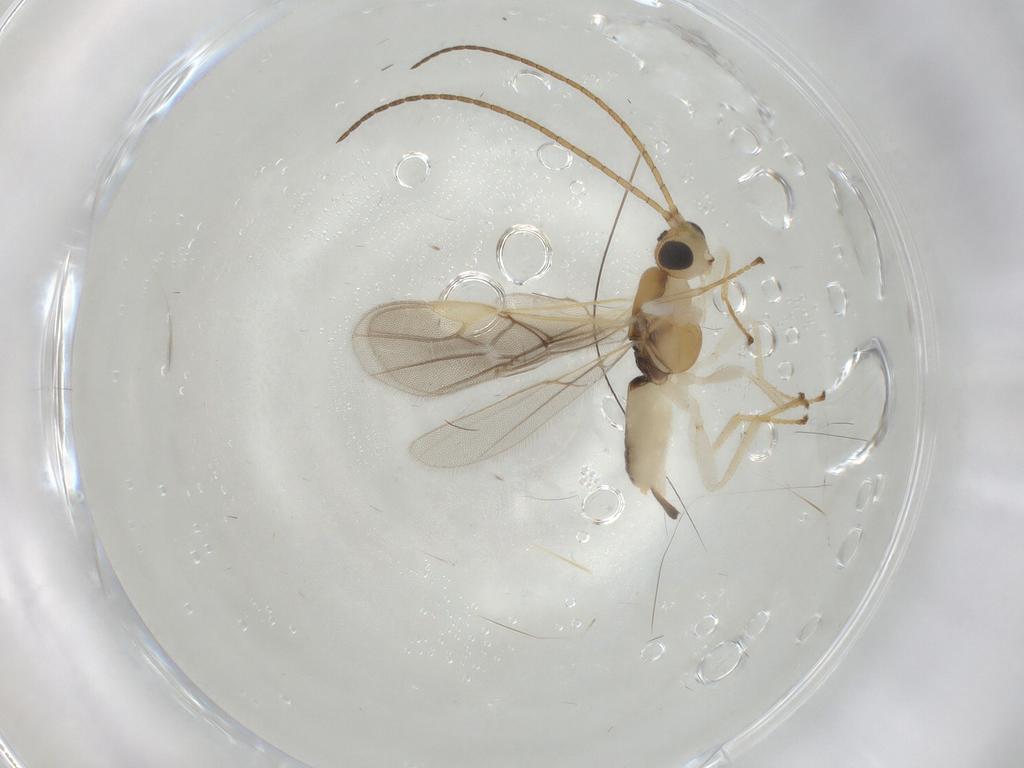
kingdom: Animalia
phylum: Arthropoda
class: Insecta
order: Hymenoptera
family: Braconidae
